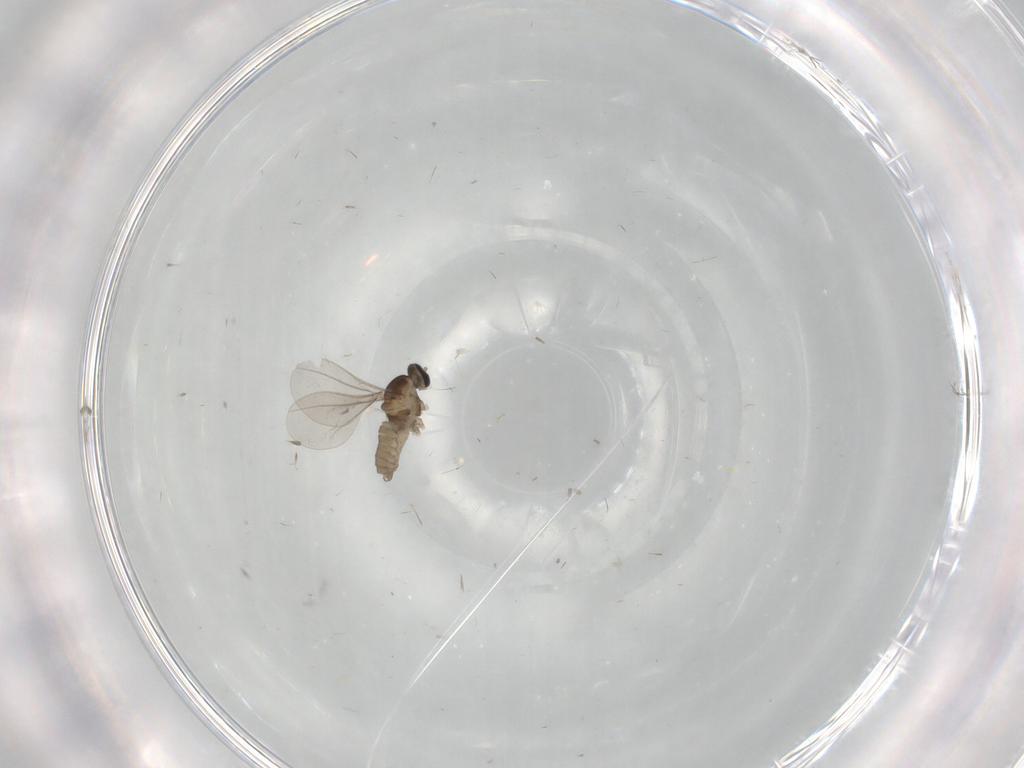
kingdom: Animalia
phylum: Arthropoda
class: Insecta
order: Diptera
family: Cecidomyiidae
